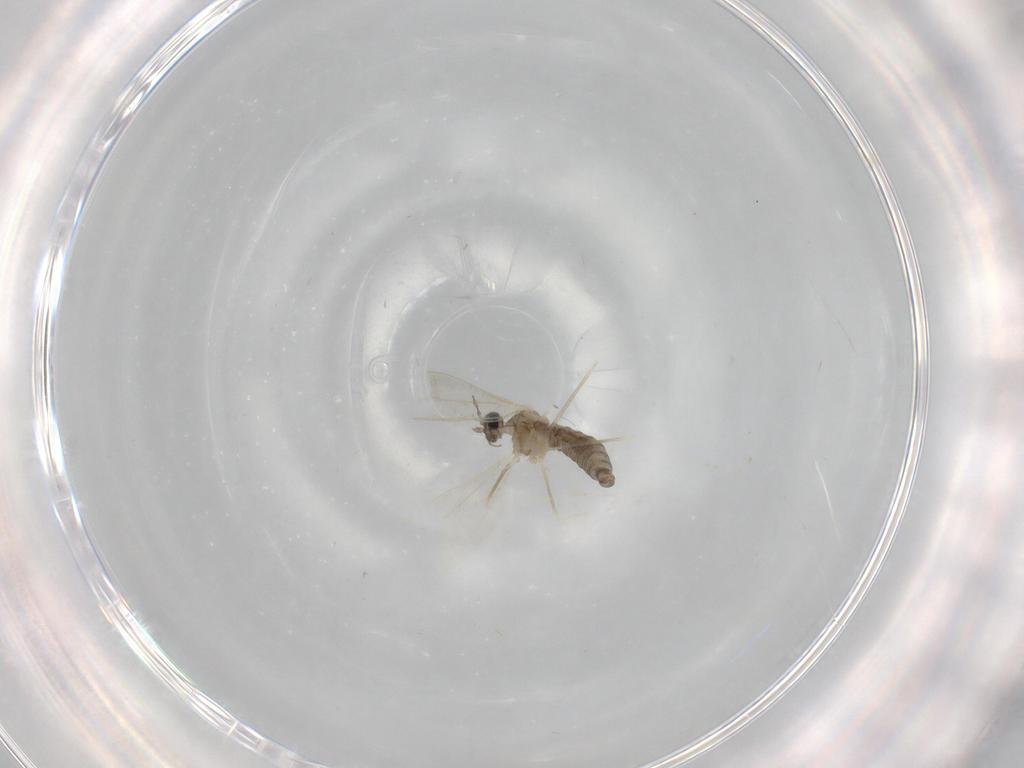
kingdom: Animalia
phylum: Arthropoda
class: Insecta
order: Diptera
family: Cecidomyiidae
